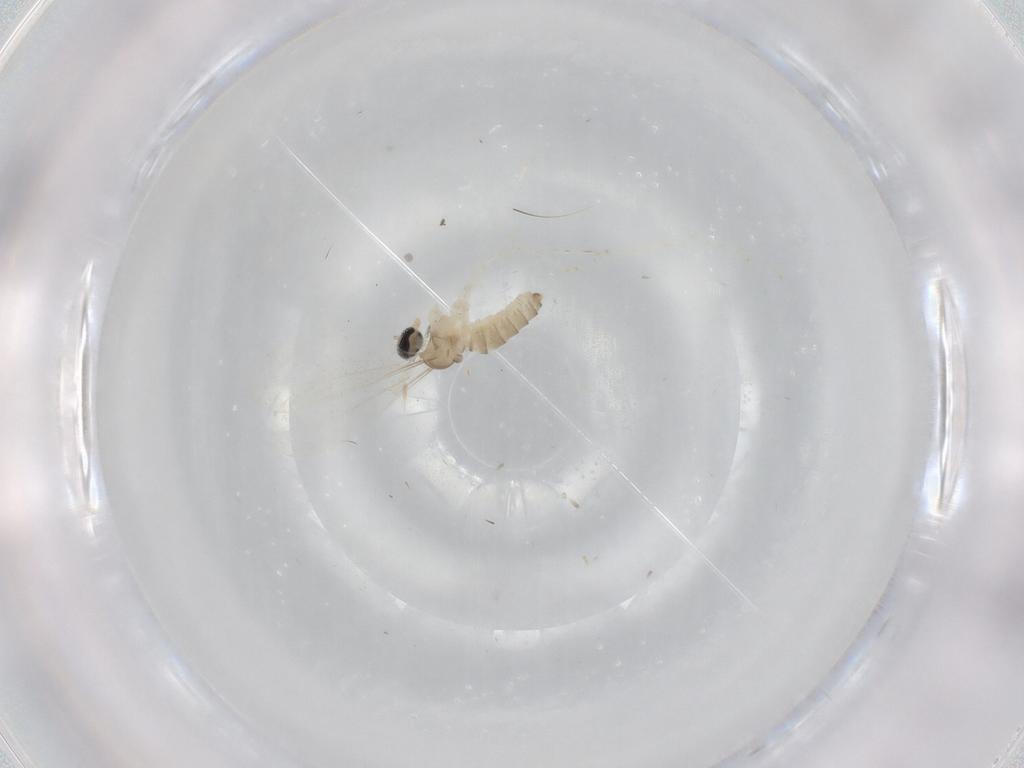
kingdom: Animalia
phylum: Arthropoda
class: Insecta
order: Diptera
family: Cecidomyiidae
